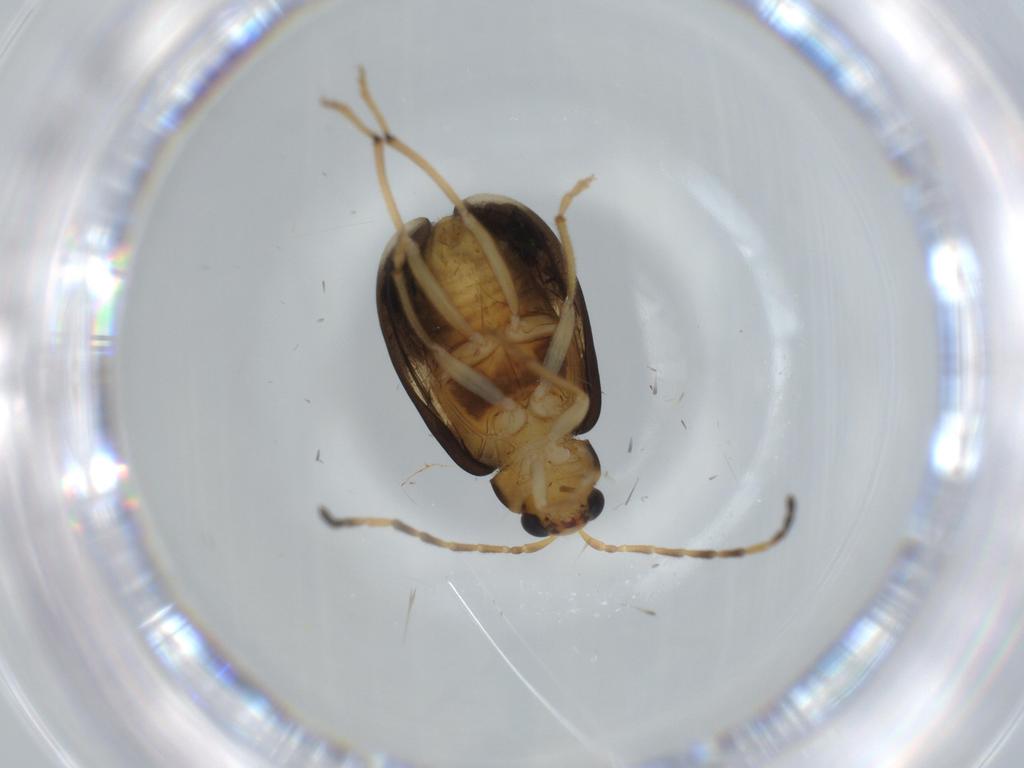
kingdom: Animalia
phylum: Arthropoda
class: Insecta
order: Coleoptera
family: Chrysomelidae
